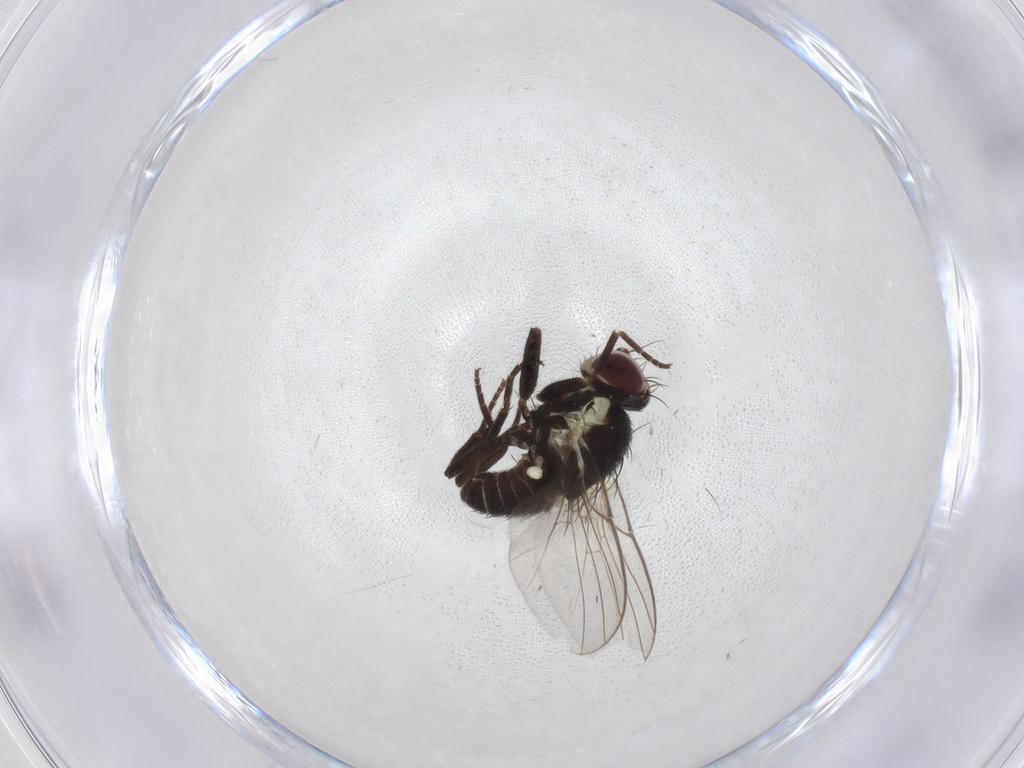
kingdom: Animalia
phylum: Arthropoda
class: Insecta
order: Diptera
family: Agromyzidae
